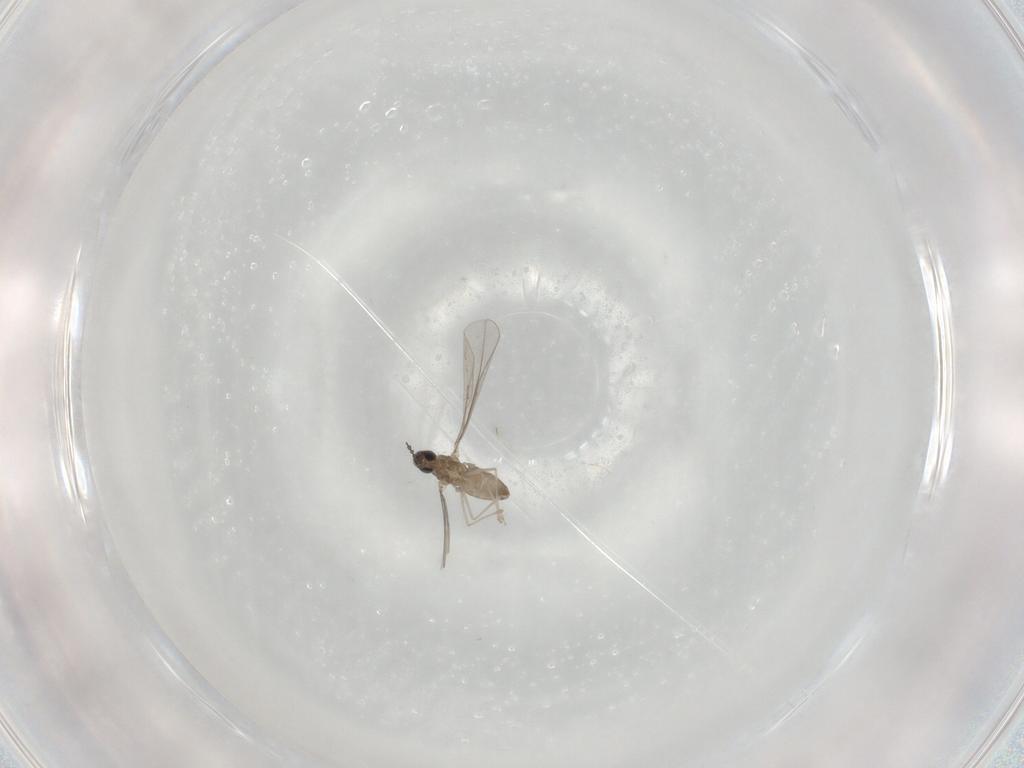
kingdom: Animalia
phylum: Arthropoda
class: Insecta
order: Diptera
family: Cecidomyiidae
